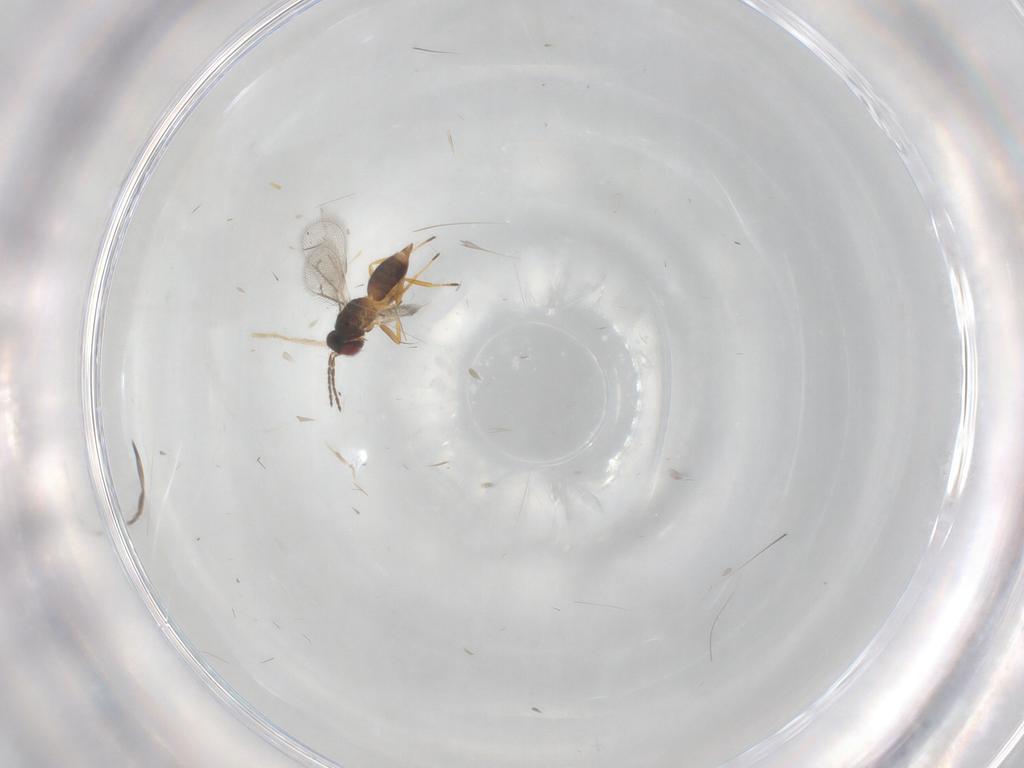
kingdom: Animalia
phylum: Arthropoda
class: Insecta
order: Hymenoptera
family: Eulophidae
